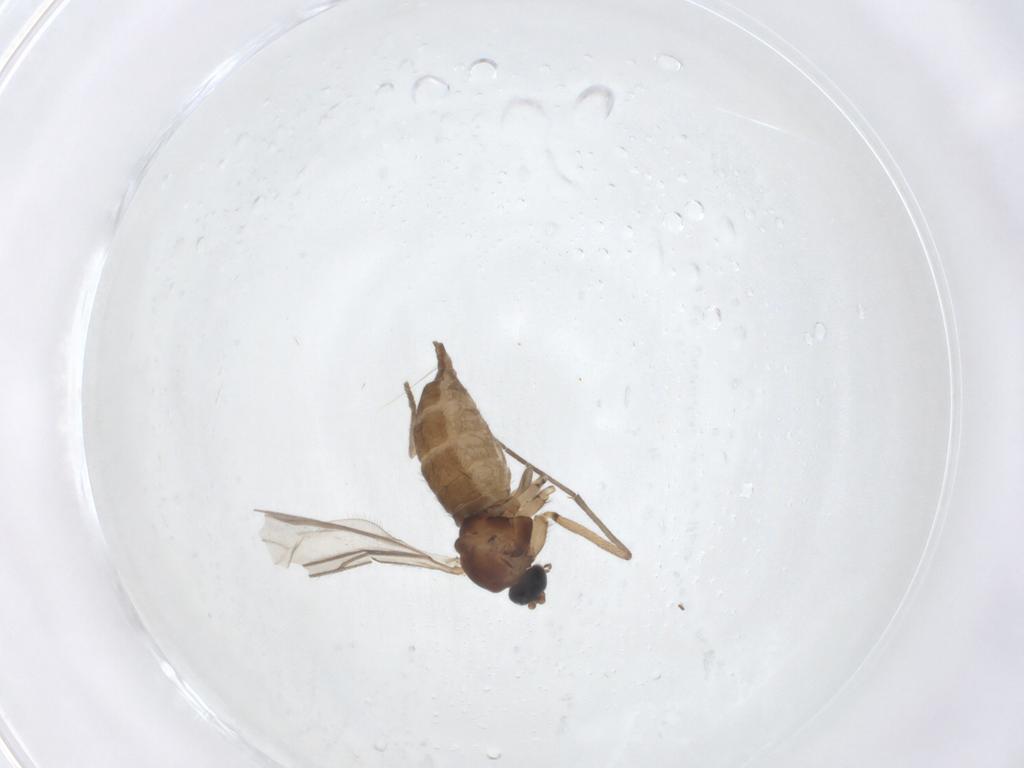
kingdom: Animalia
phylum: Arthropoda
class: Insecta
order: Diptera
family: Sciaridae
